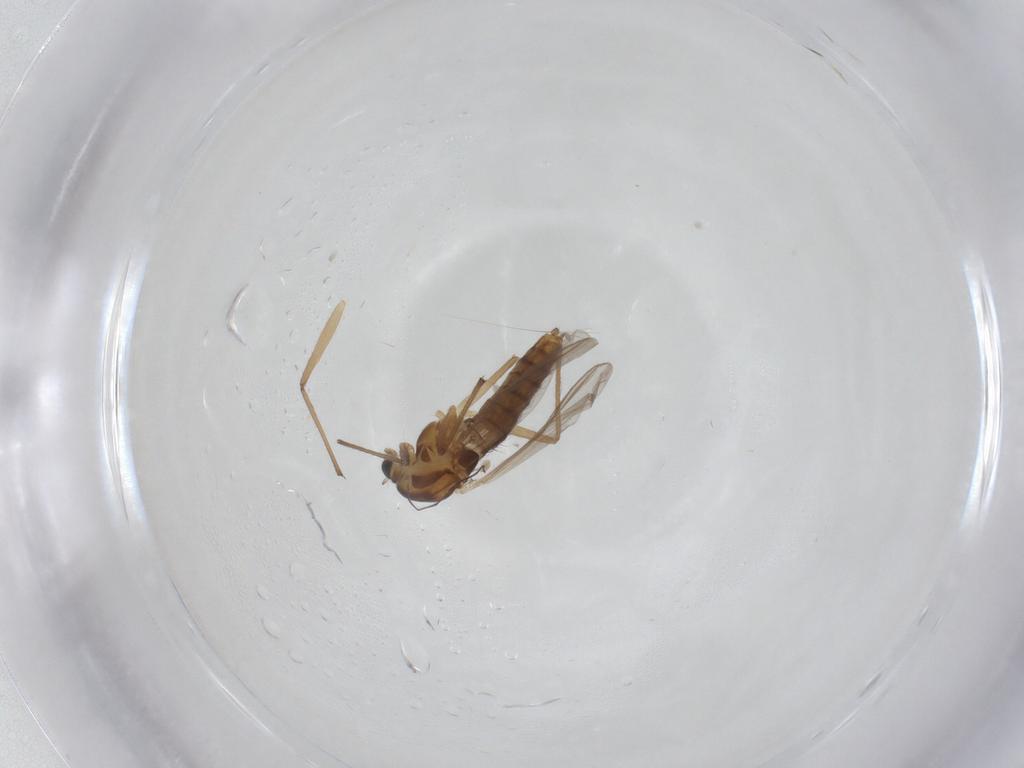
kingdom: Animalia
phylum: Arthropoda
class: Insecta
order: Diptera
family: Chironomidae
